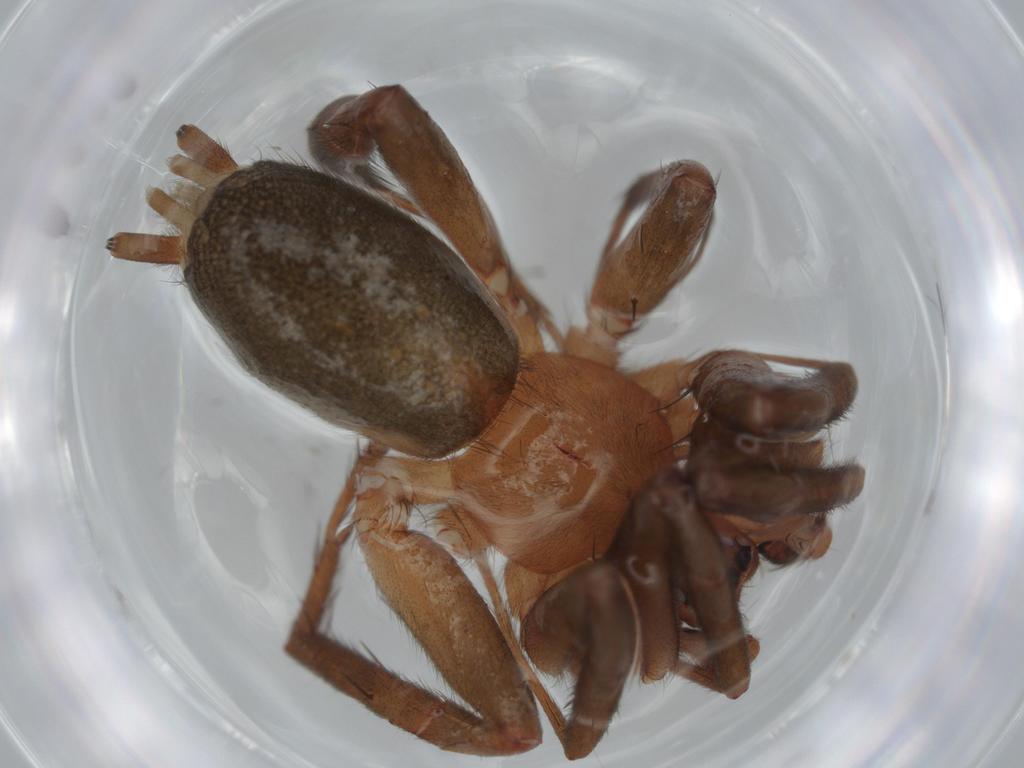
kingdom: Animalia
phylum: Arthropoda
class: Arachnida
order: Araneae
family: Gnaphosidae
